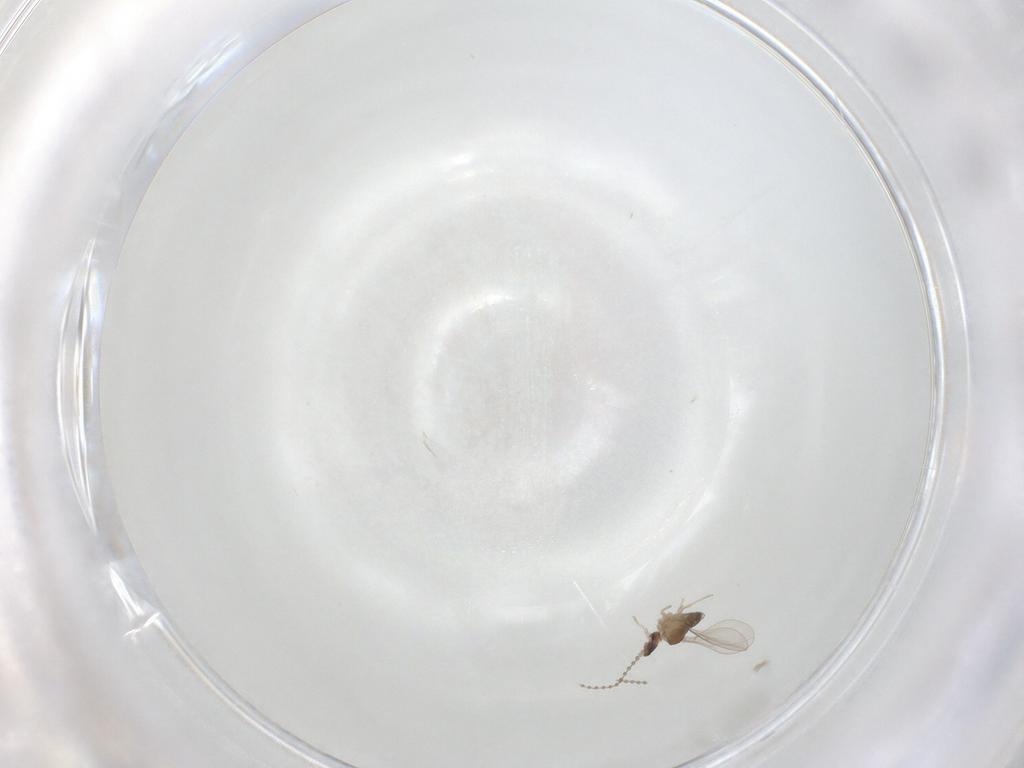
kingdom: Animalia
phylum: Arthropoda
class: Insecta
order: Diptera
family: Cecidomyiidae
